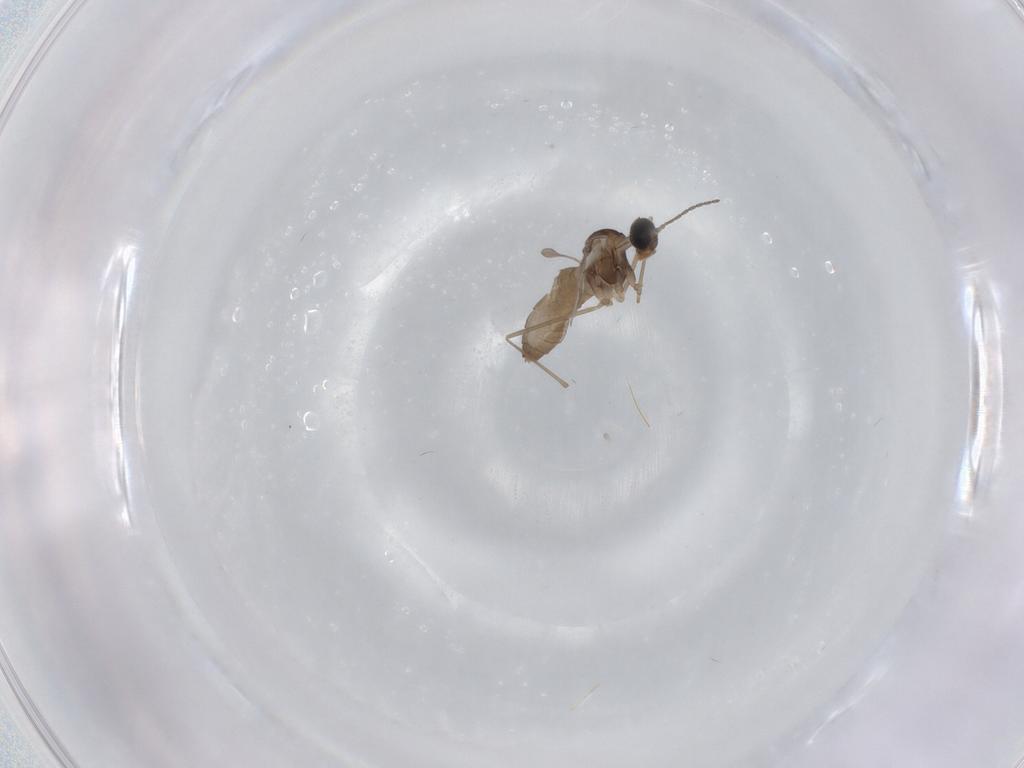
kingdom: Animalia
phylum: Arthropoda
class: Insecta
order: Diptera
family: Cecidomyiidae
